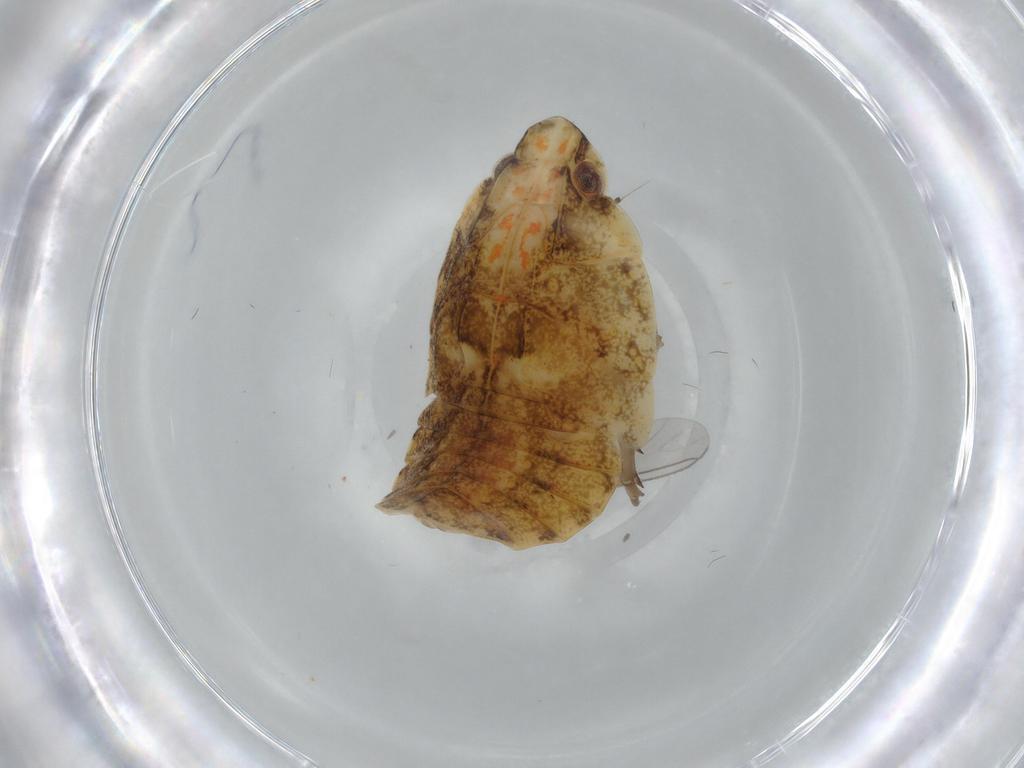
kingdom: Animalia
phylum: Arthropoda
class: Insecta
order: Hemiptera
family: Flatidae
